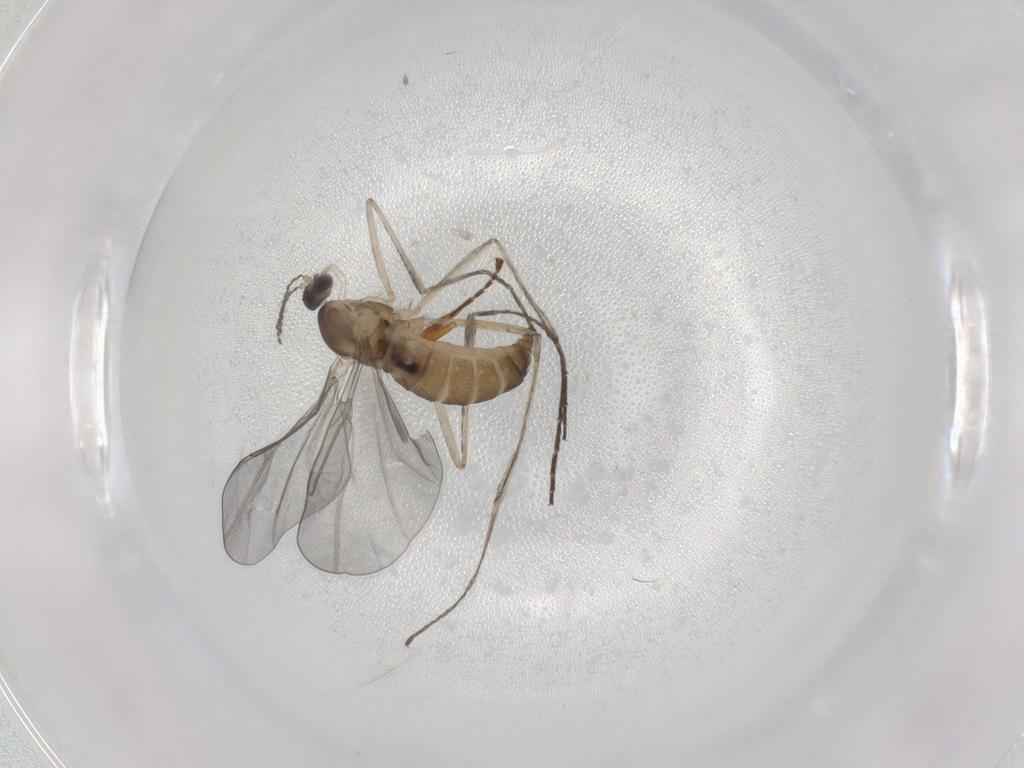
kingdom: Animalia
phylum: Arthropoda
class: Insecta
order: Diptera
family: Cecidomyiidae
